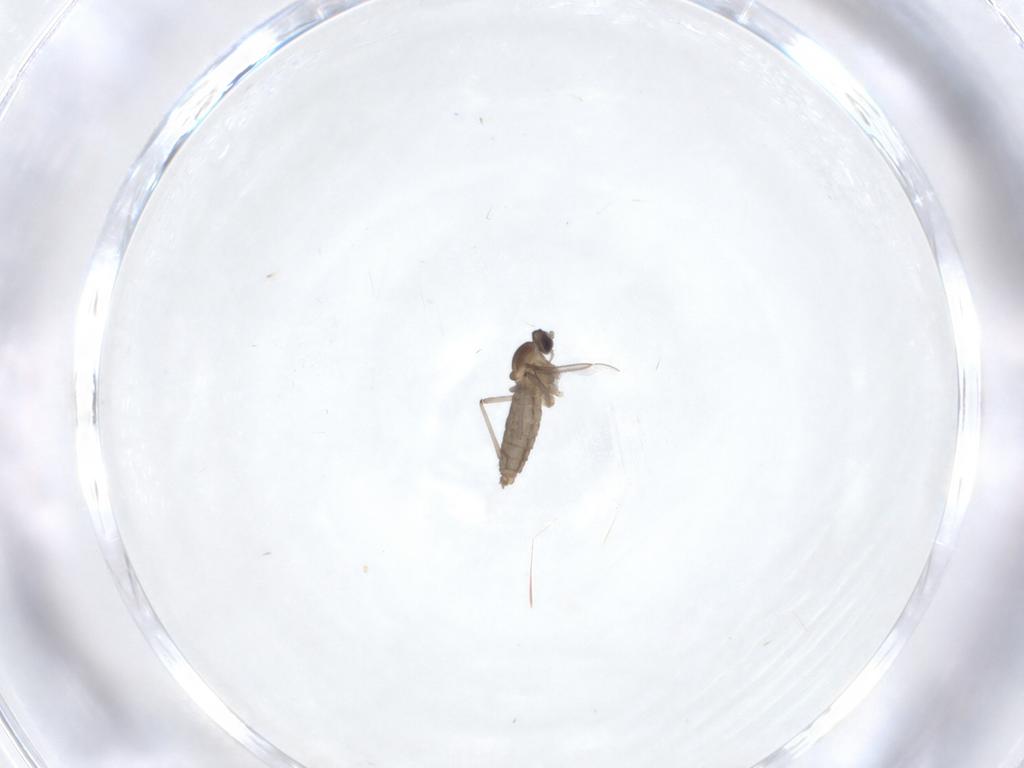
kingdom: Animalia
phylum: Arthropoda
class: Insecta
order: Diptera
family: Cecidomyiidae
